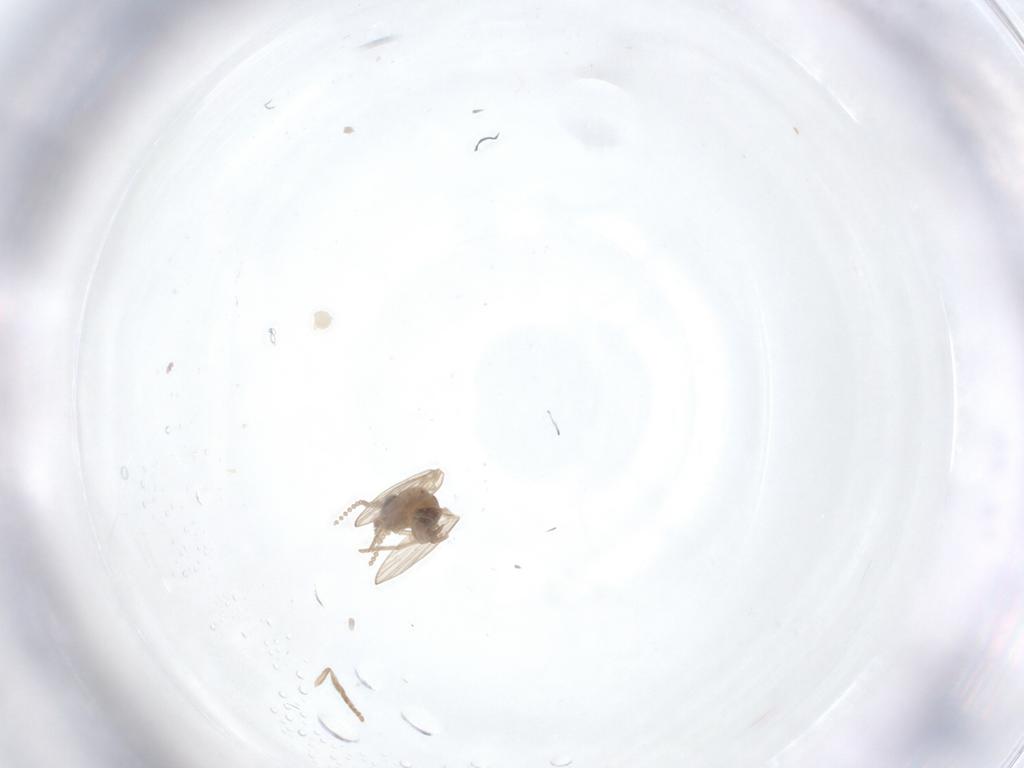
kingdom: Animalia
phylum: Arthropoda
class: Insecta
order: Diptera
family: Psychodidae
